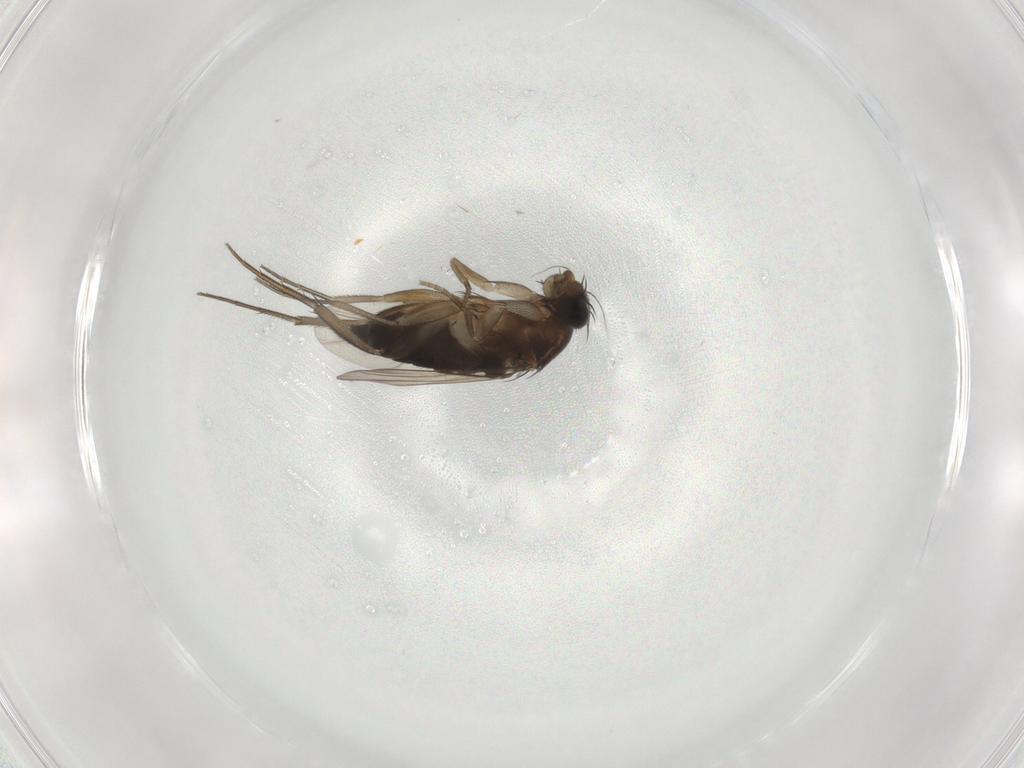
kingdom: Animalia
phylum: Arthropoda
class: Insecta
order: Diptera
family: Phoridae
